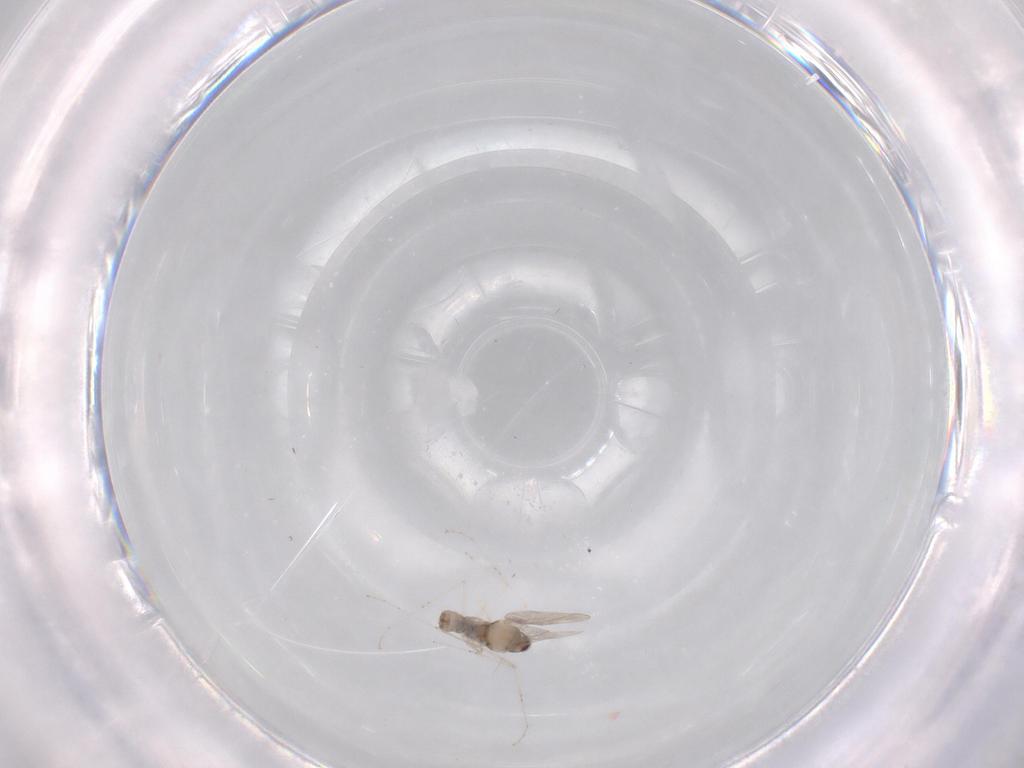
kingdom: Animalia
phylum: Arthropoda
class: Insecta
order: Diptera
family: Cecidomyiidae
